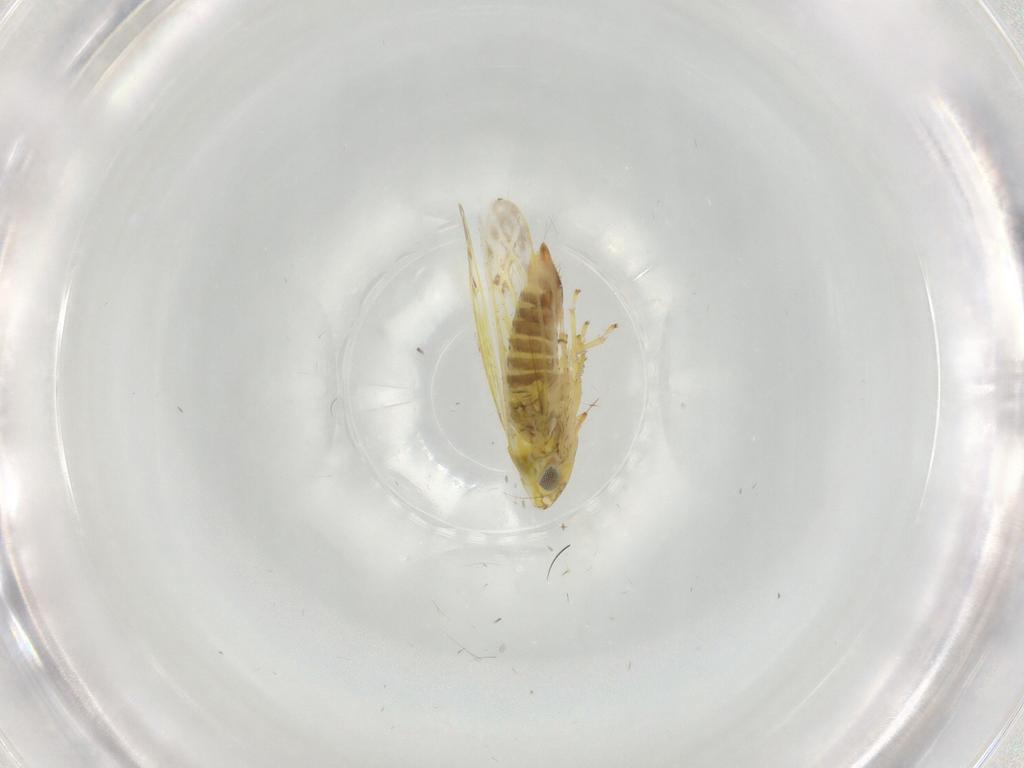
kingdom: Animalia
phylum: Arthropoda
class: Insecta
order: Hemiptera
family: Cicadellidae
